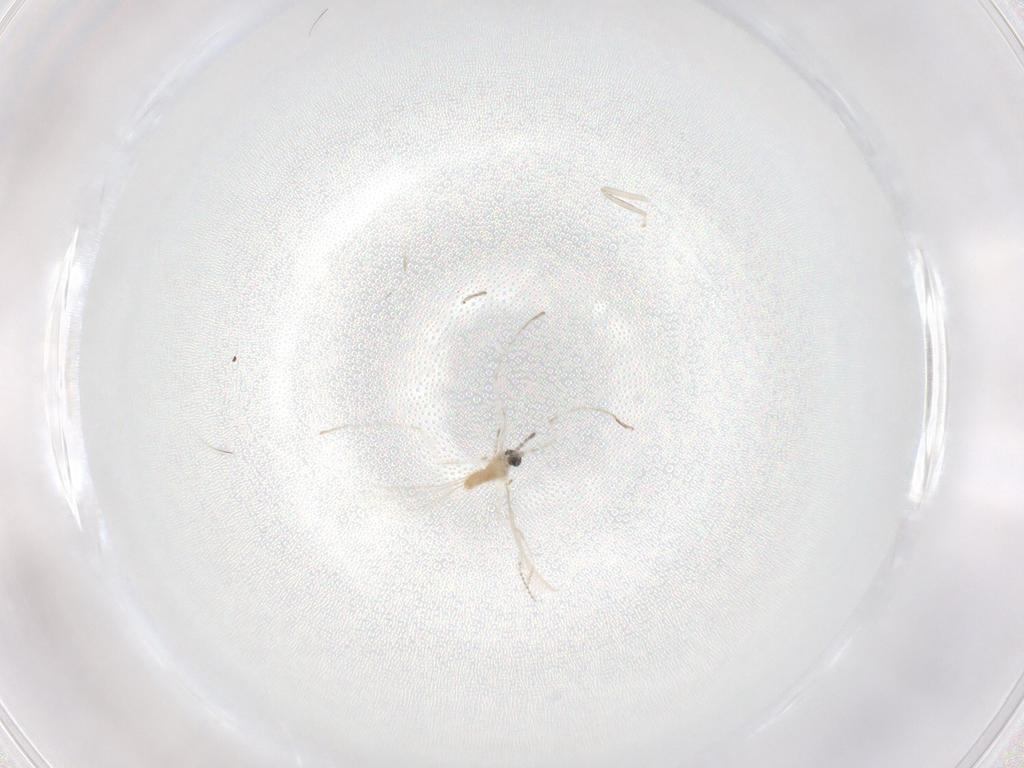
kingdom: Animalia
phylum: Arthropoda
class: Insecta
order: Diptera
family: Cecidomyiidae
